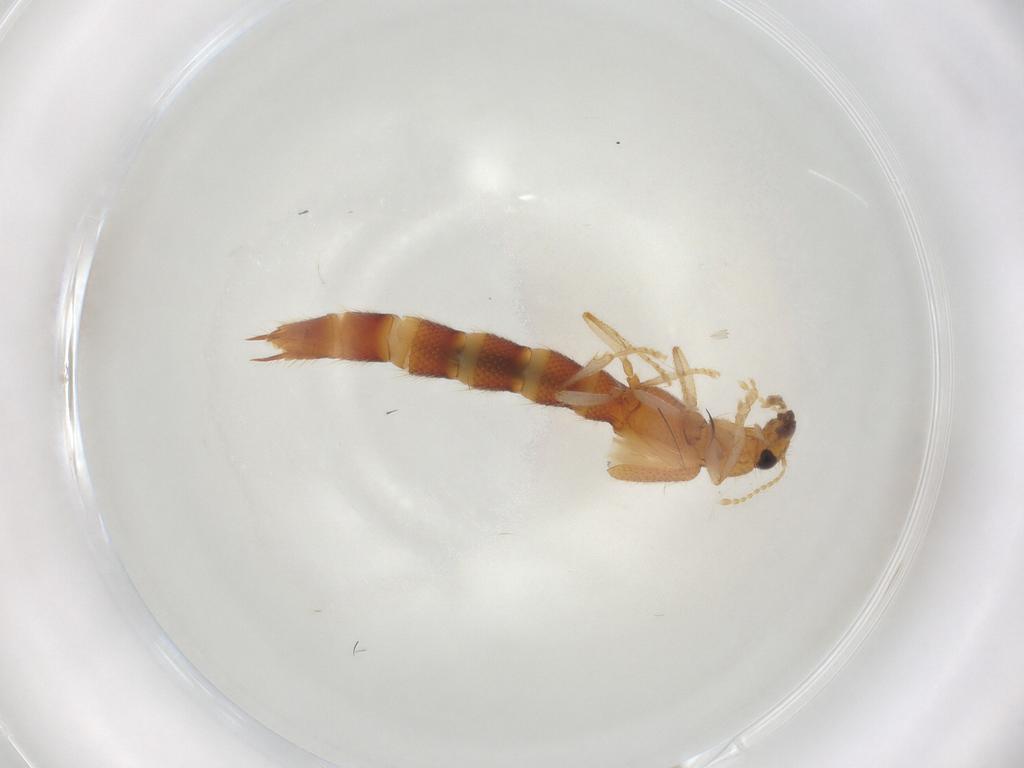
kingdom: Animalia
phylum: Arthropoda
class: Insecta
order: Coleoptera
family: Staphylinidae
